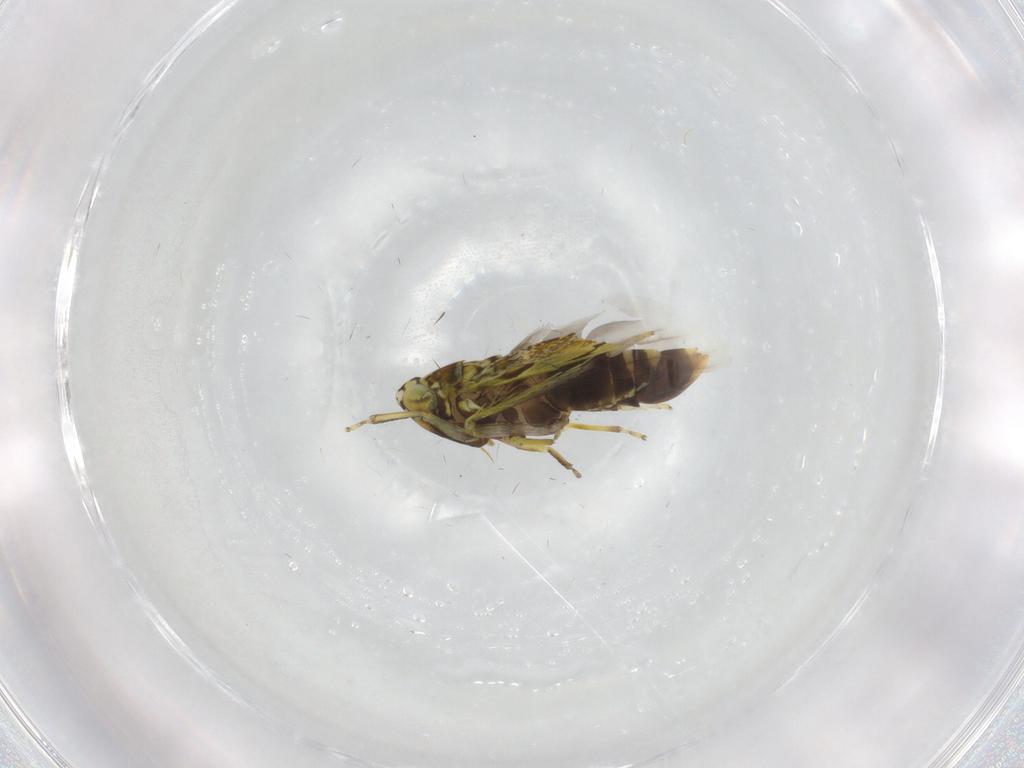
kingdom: Animalia
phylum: Arthropoda
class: Insecta
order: Hemiptera
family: Cicadellidae
